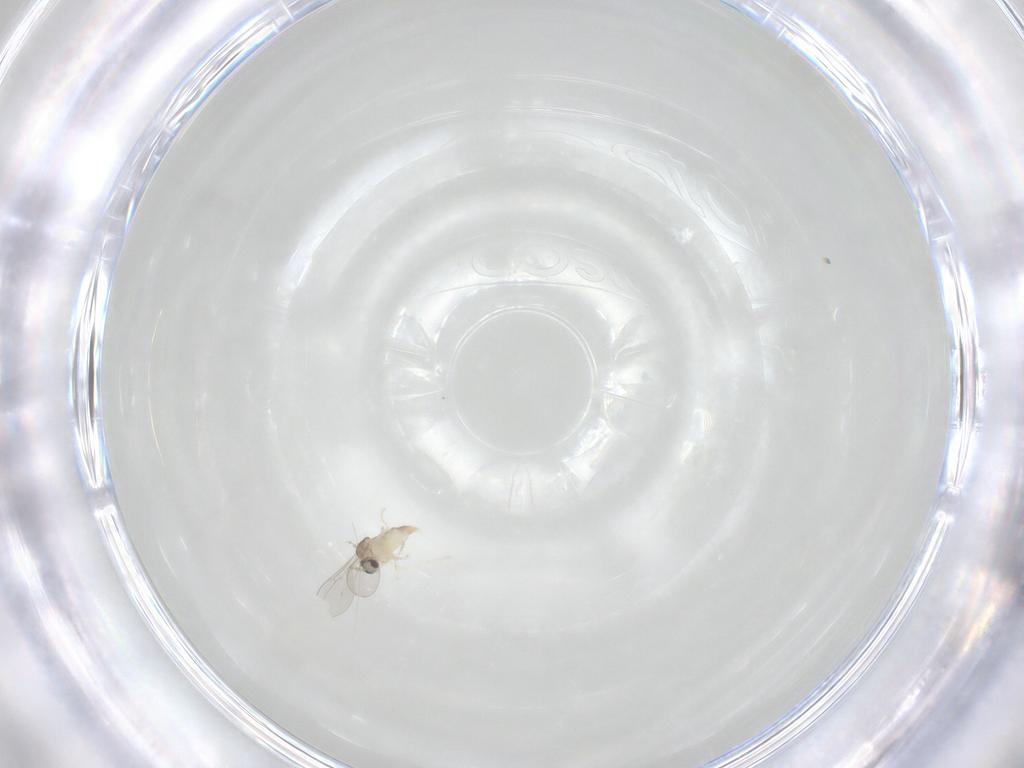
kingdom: Animalia
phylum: Arthropoda
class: Insecta
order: Diptera
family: Cecidomyiidae
